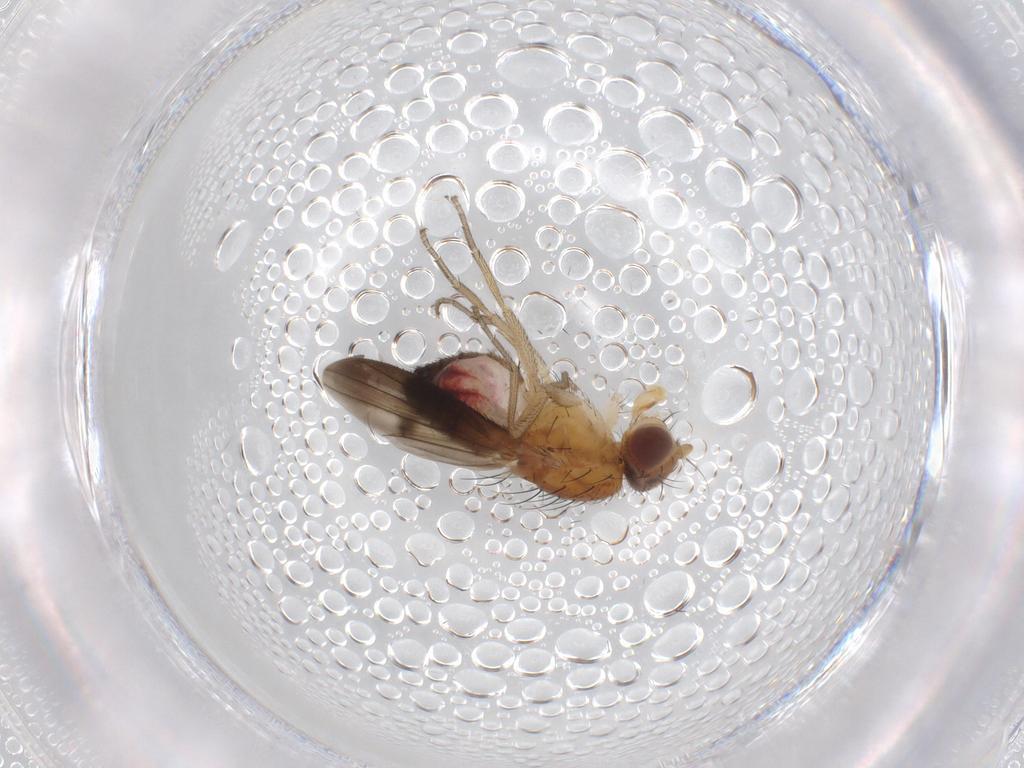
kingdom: Animalia
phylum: Arthropoda
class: Insecta
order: Diptera
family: Heleomyzidae
